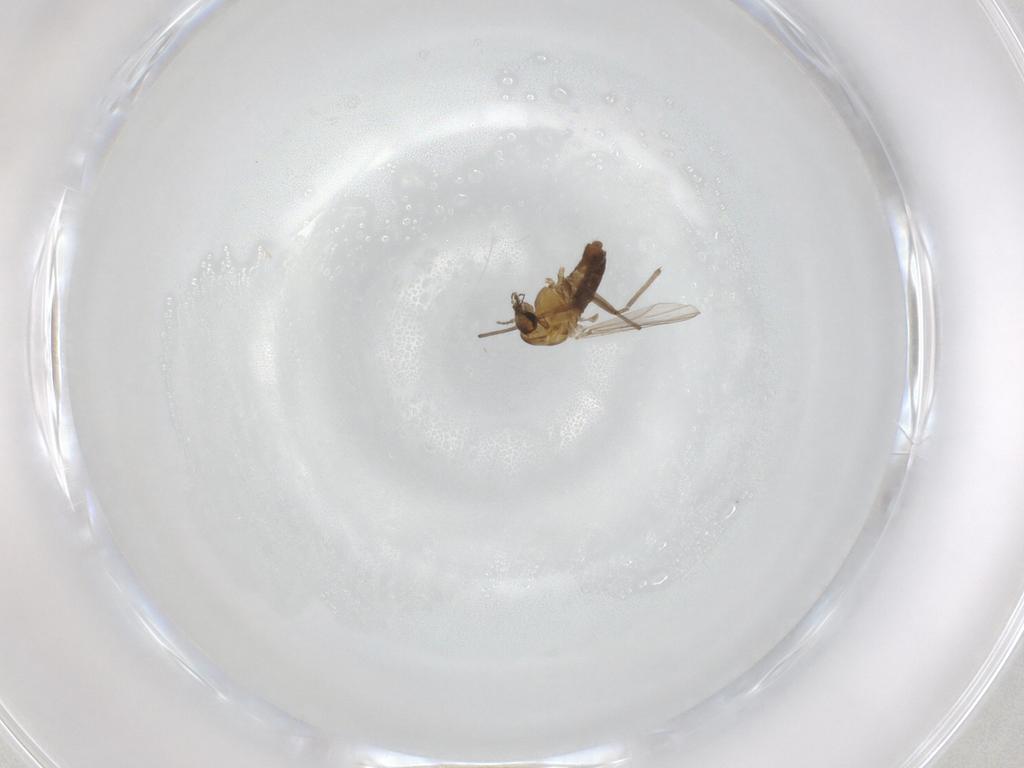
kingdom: Animalia
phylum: Arthropoda
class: Insecta
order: Diptera
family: Chironomidae
